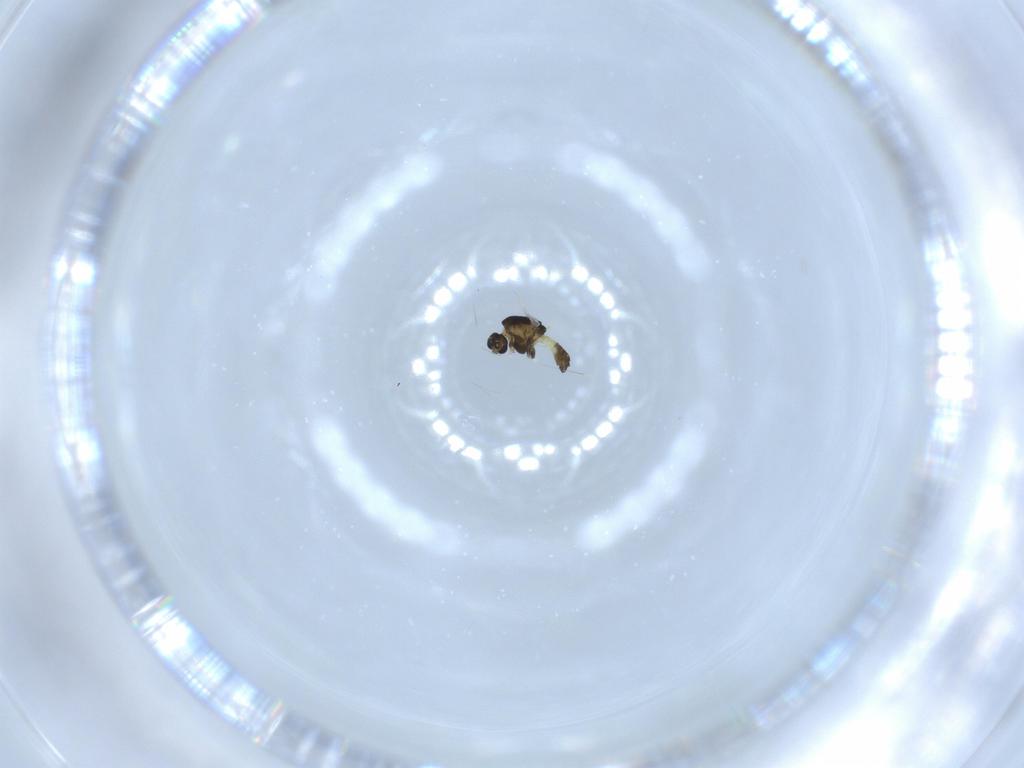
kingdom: Animalia
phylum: Arthropoda
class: Insecta
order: Diptera
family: Chironomidae
